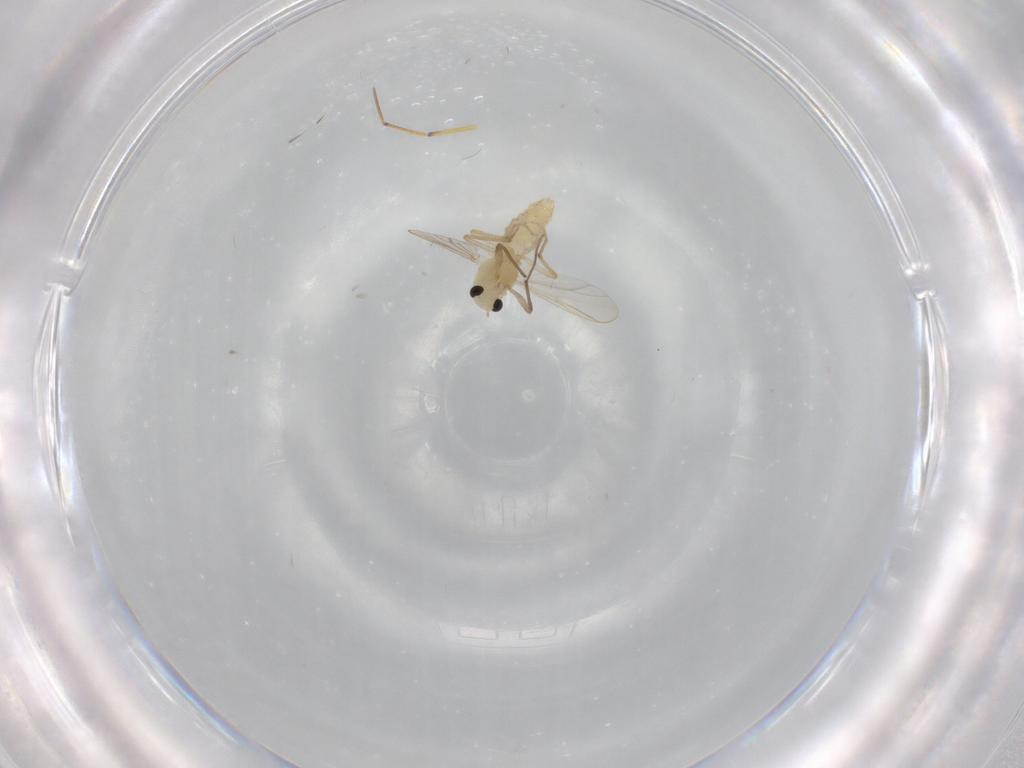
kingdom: Animalia
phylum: Arthropoda
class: Insecta
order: Diptera
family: Chironomidae
